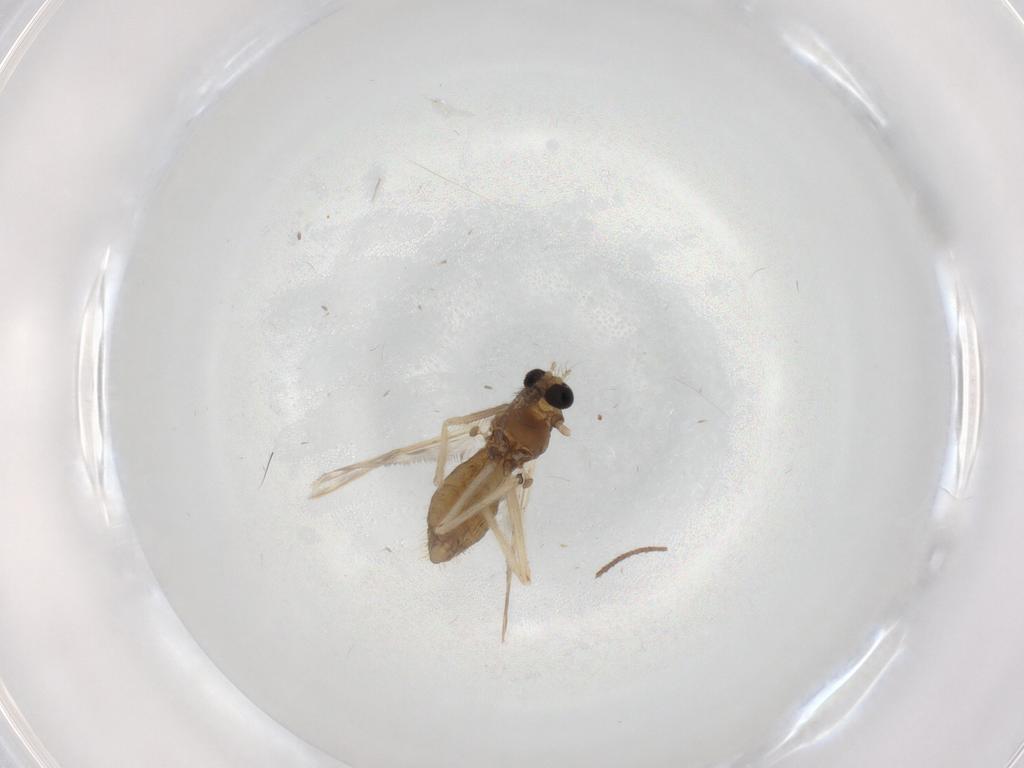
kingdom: Animalia
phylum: Arthropoda
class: Insecta
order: Diptera
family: Chironomidae
